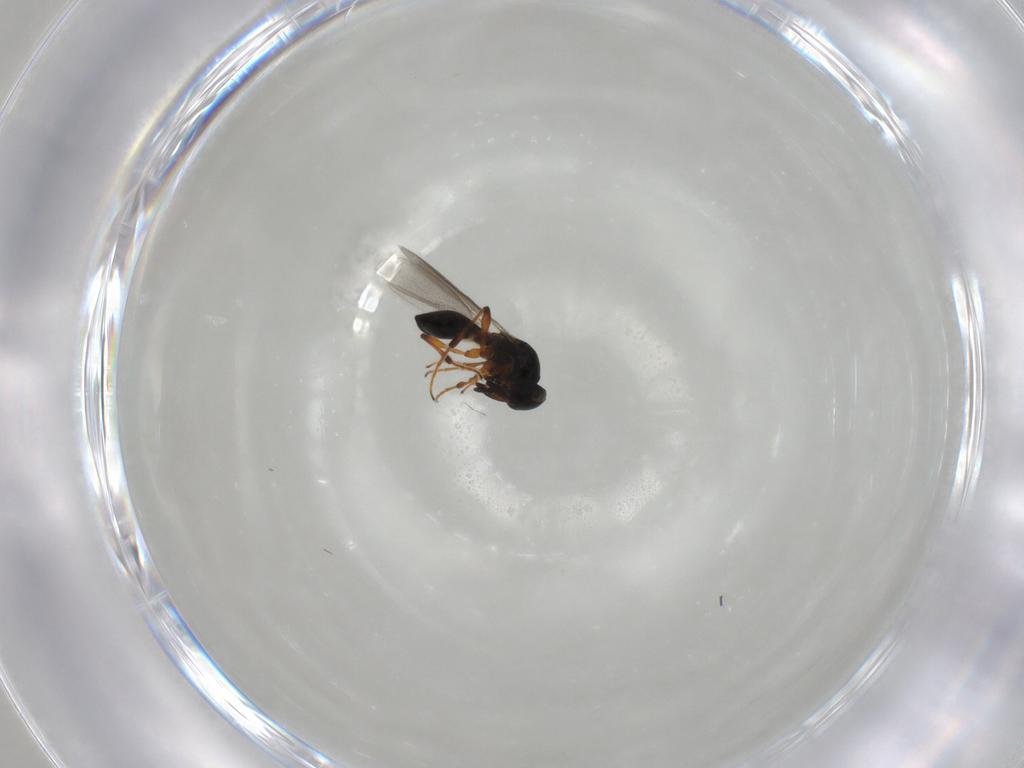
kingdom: Animalia
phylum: Arthropoda
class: Insecta
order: Hymenoptera
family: Platygastridae
